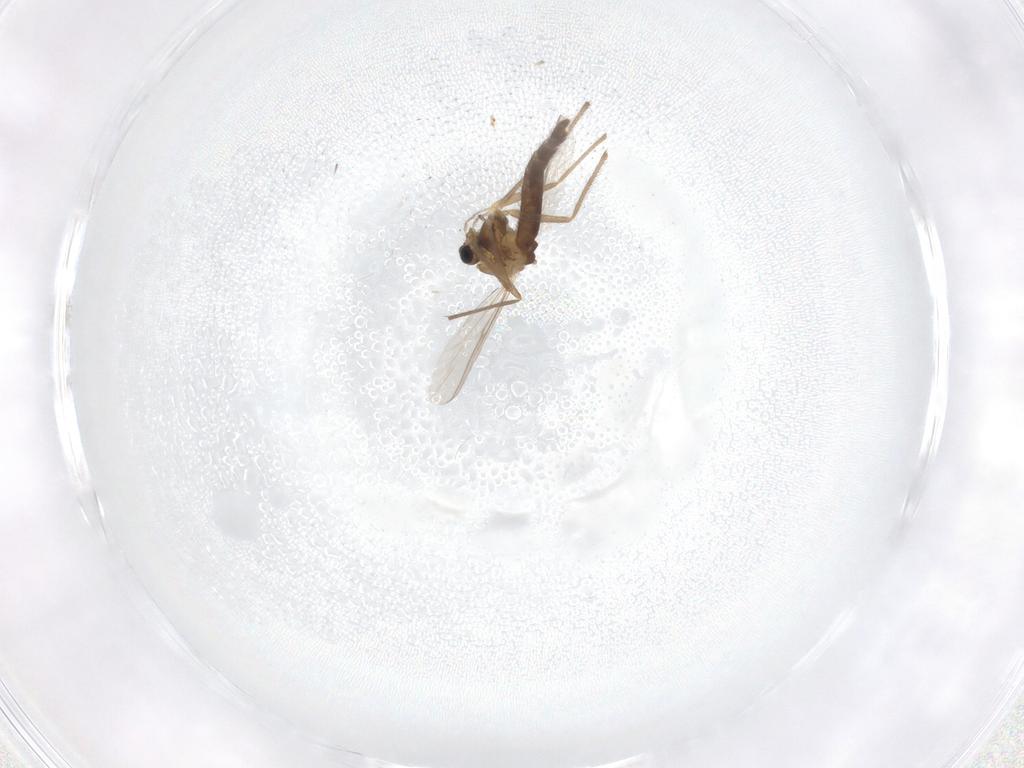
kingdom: Animalia
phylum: Arthropoda
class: Insecta
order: Diptera
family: Chironomidae
